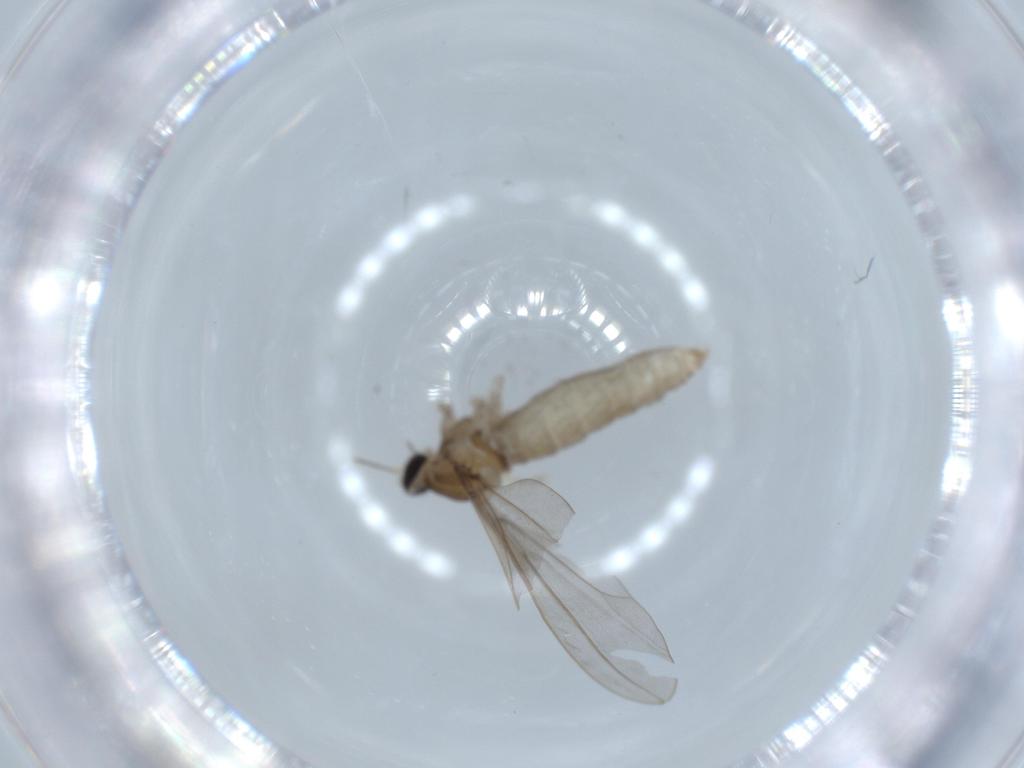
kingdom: Animalia
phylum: Arthropoda
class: Insecta
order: Diptera
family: Cecidomyiidae
